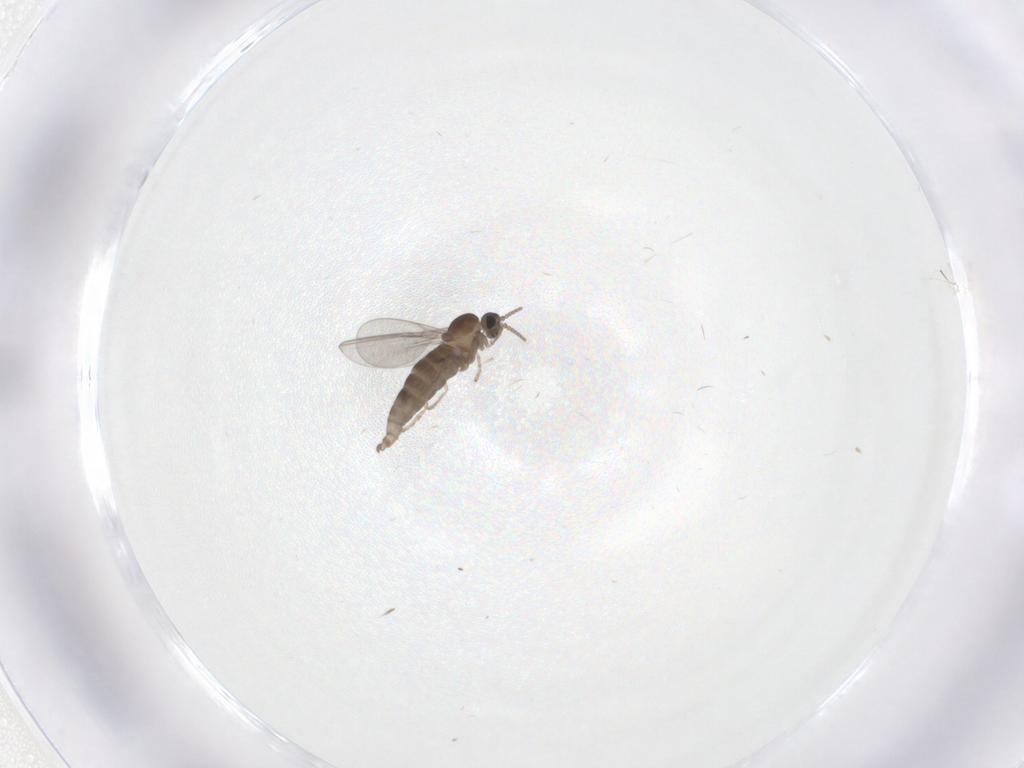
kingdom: Animalia
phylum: Arthropoda
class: Insecta
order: Diptera
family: Cecidomyiidae
